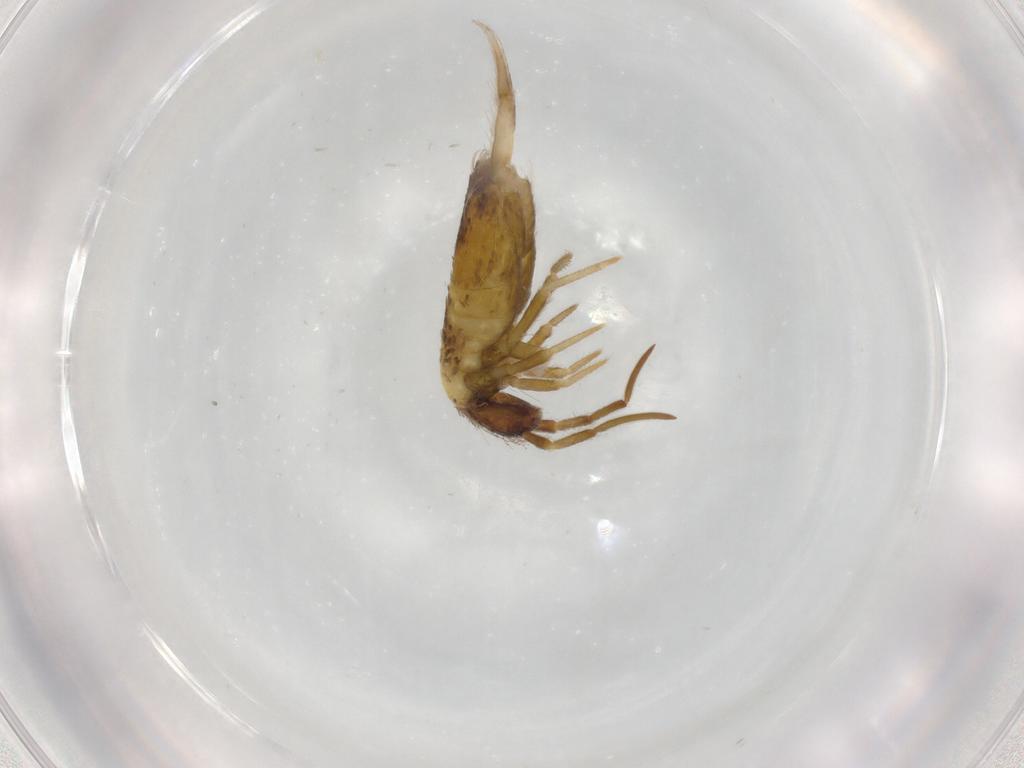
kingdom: Animalia
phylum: Arthropoda
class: Collembola
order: Entomobryomorpha
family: Entomobryidae
